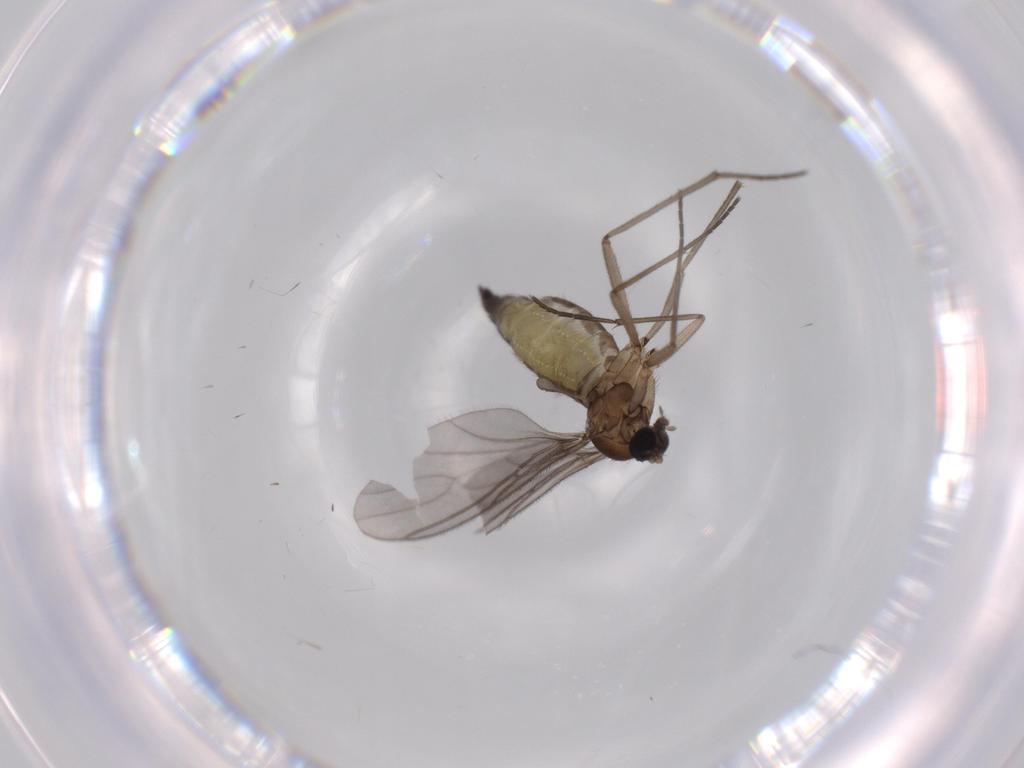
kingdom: Animalia
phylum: Arthropoda
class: Insecta
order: Diptera
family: Sciaridae
